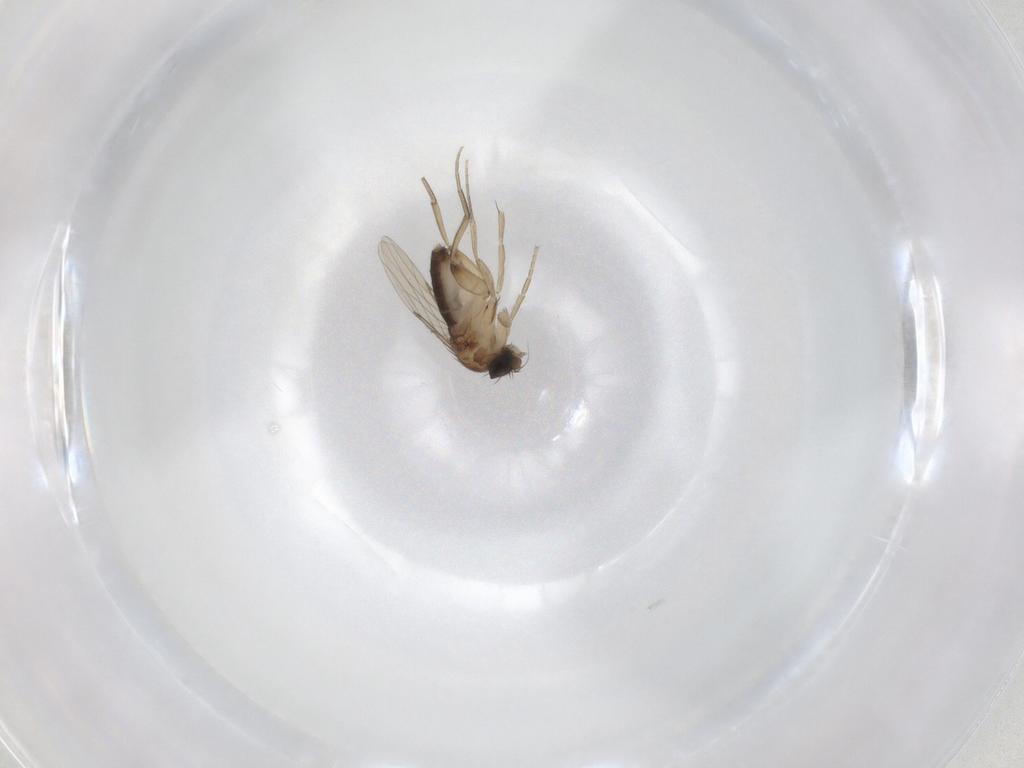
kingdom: Animalia
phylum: Arthropoda
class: Insecta
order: Diptera
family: Phoridae
